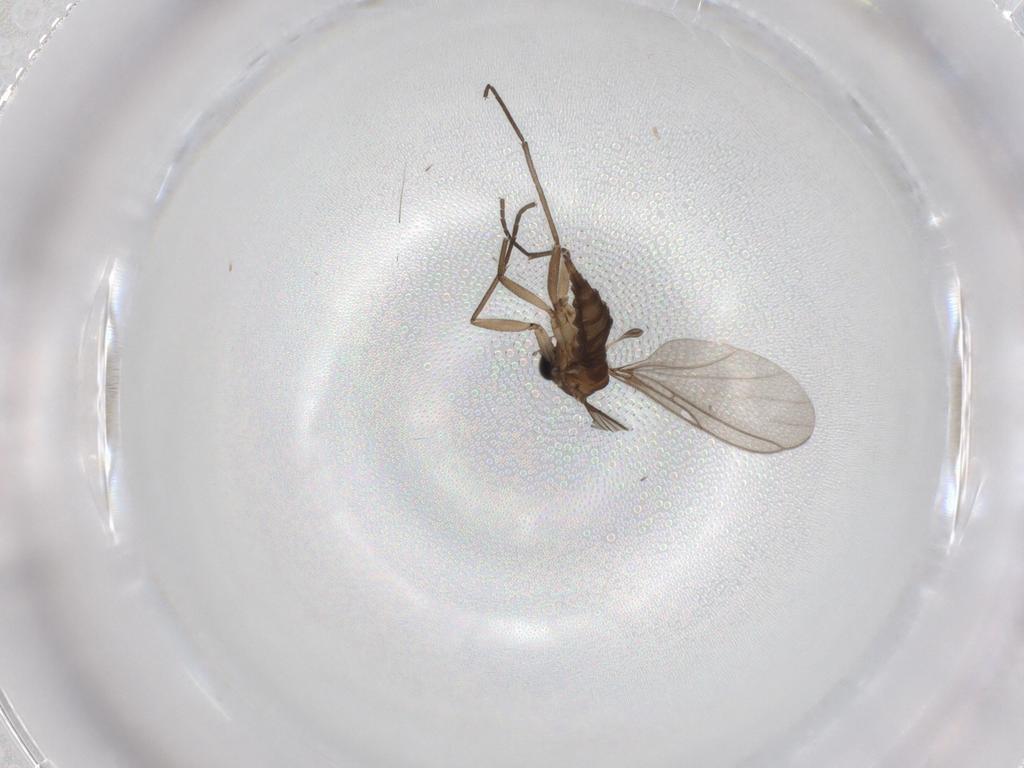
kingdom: Animalia
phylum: Arthropoda
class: Insecta
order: Diptera
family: Sciaridae
